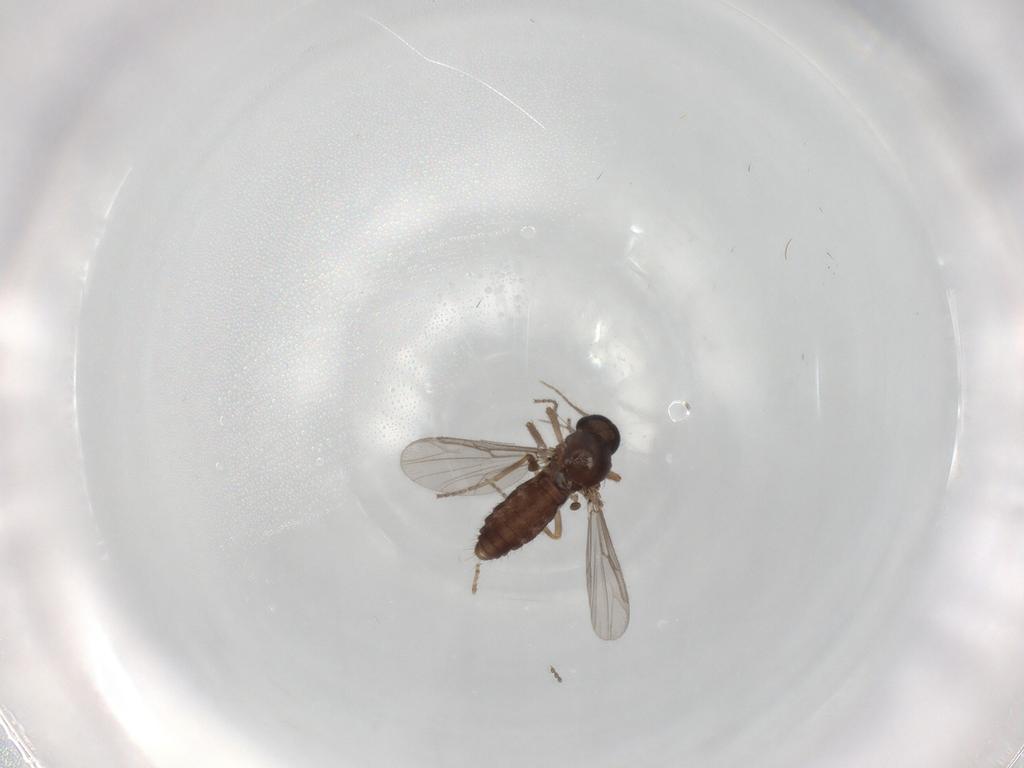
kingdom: Animalia
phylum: Arthropoda
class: Insecta
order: Diptera
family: Ceratopogonidae
